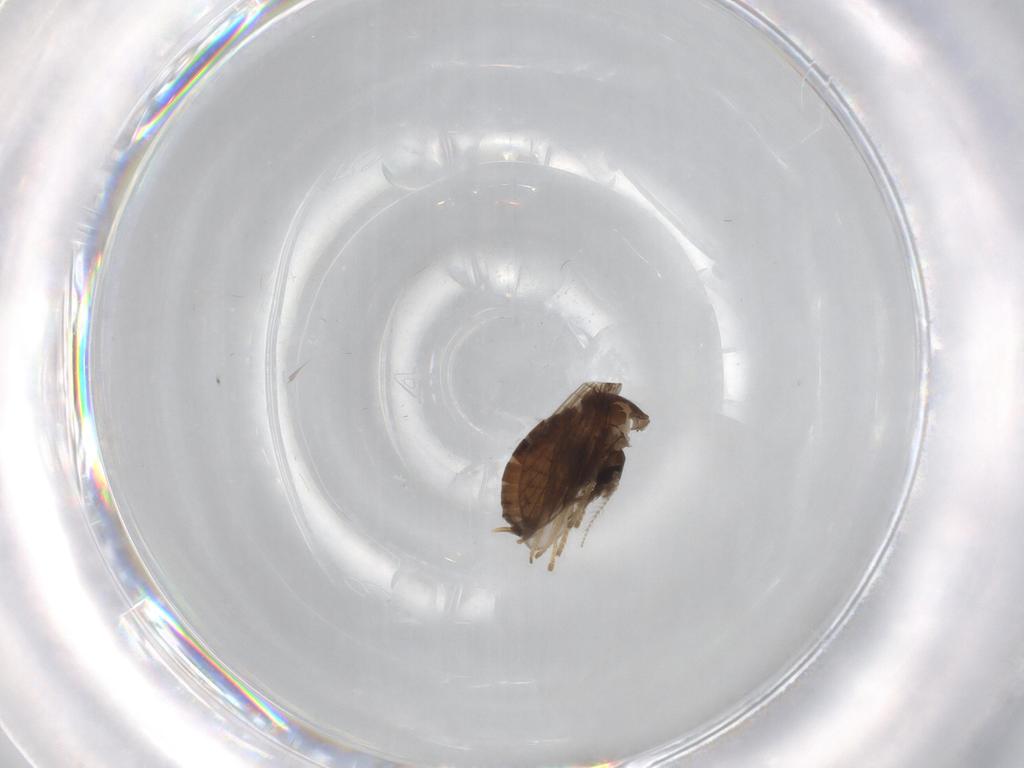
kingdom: Animalia
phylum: Arthropoda
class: Insecta
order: Diptera
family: Psychodidae
